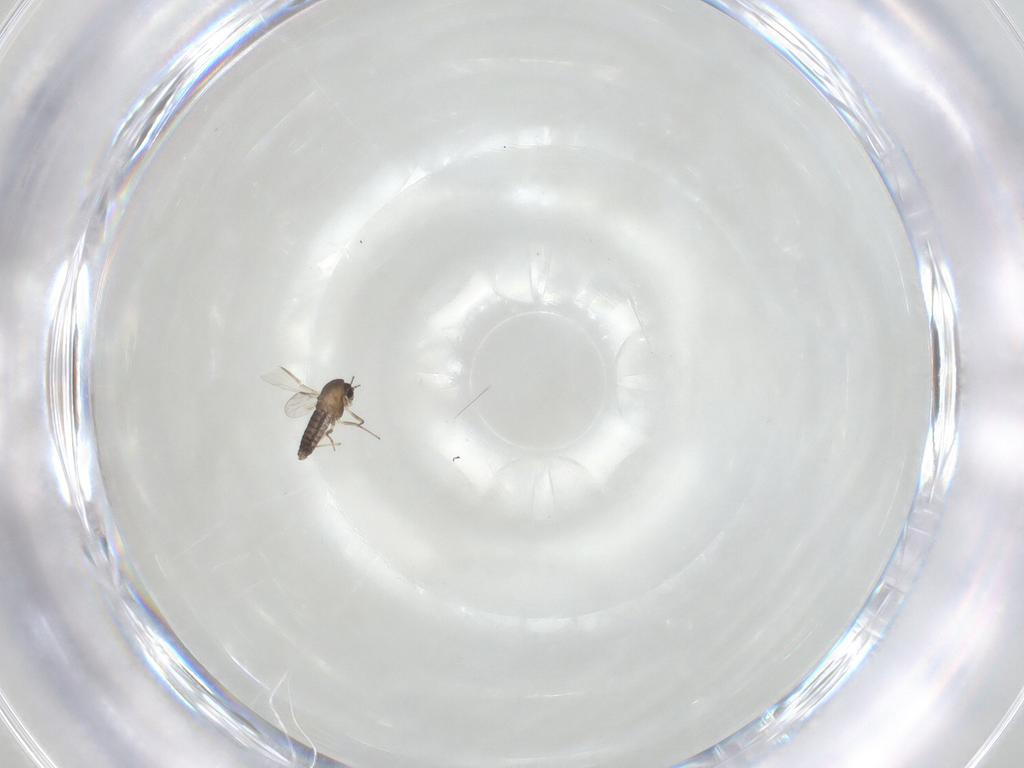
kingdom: Animalia
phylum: Arthropoda
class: Insecta
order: Diptera
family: Chironomidae
